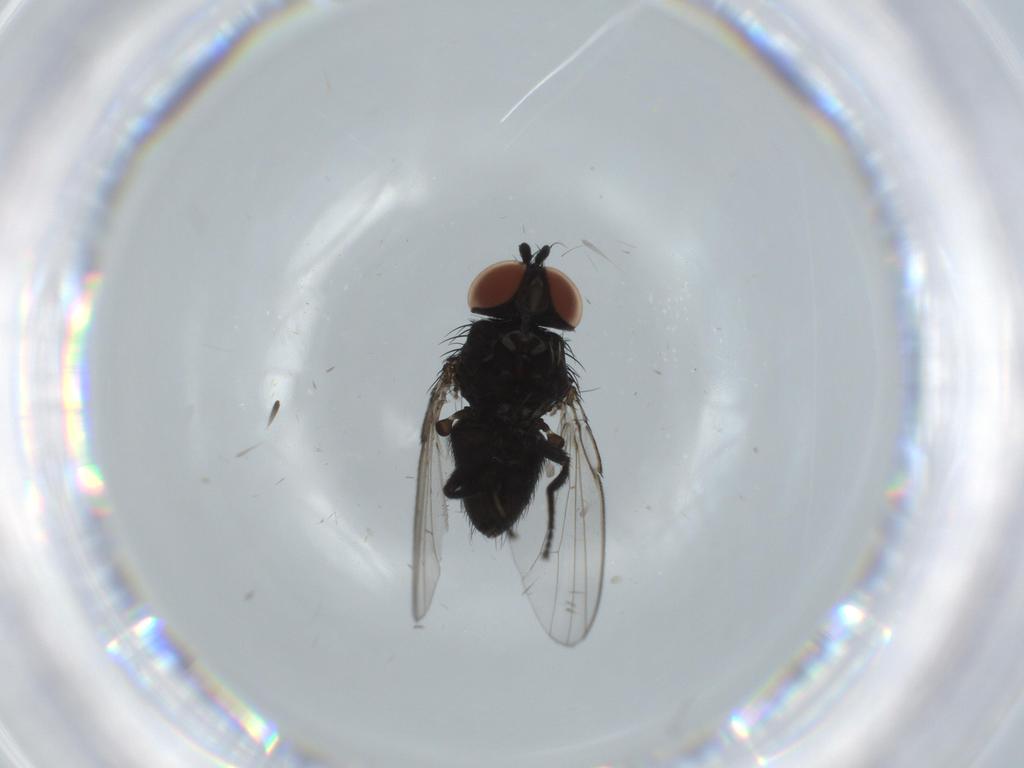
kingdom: Animalia
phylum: Arthropoda
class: Insecta
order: Diptera
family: Milichiidae
